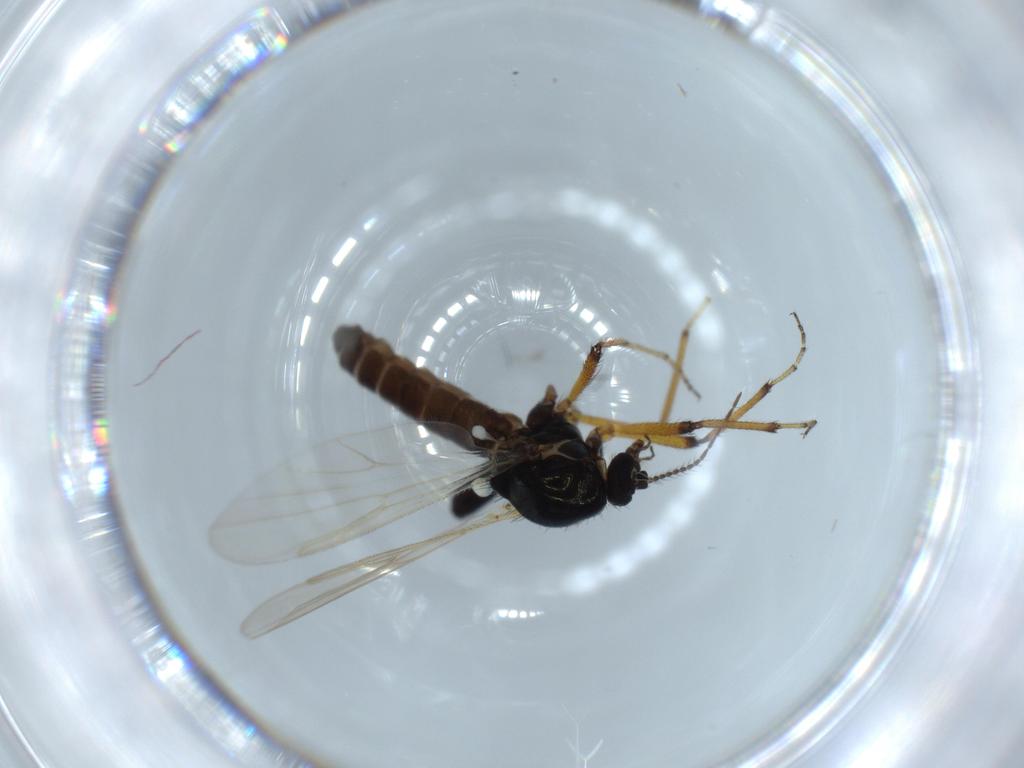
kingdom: Animalia
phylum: Arthropoda
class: Insecta
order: Diptera
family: Ceratopogonidae
